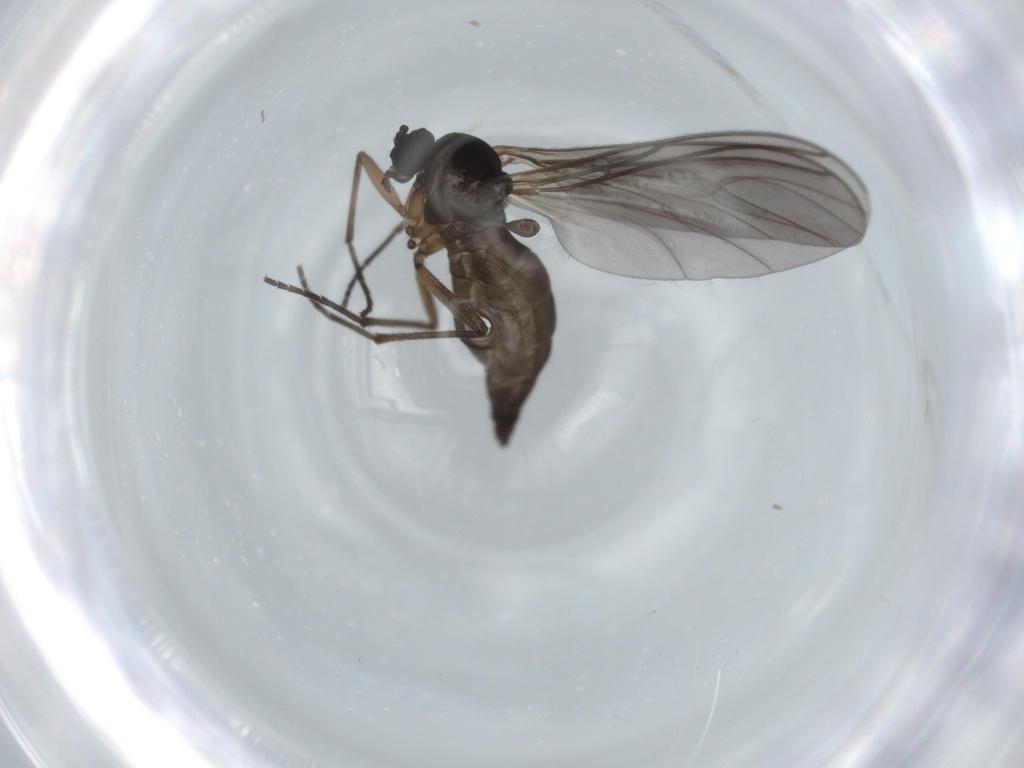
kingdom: Animalia
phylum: Arthropoda
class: Insecta
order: Diptera
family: Sciaridae
